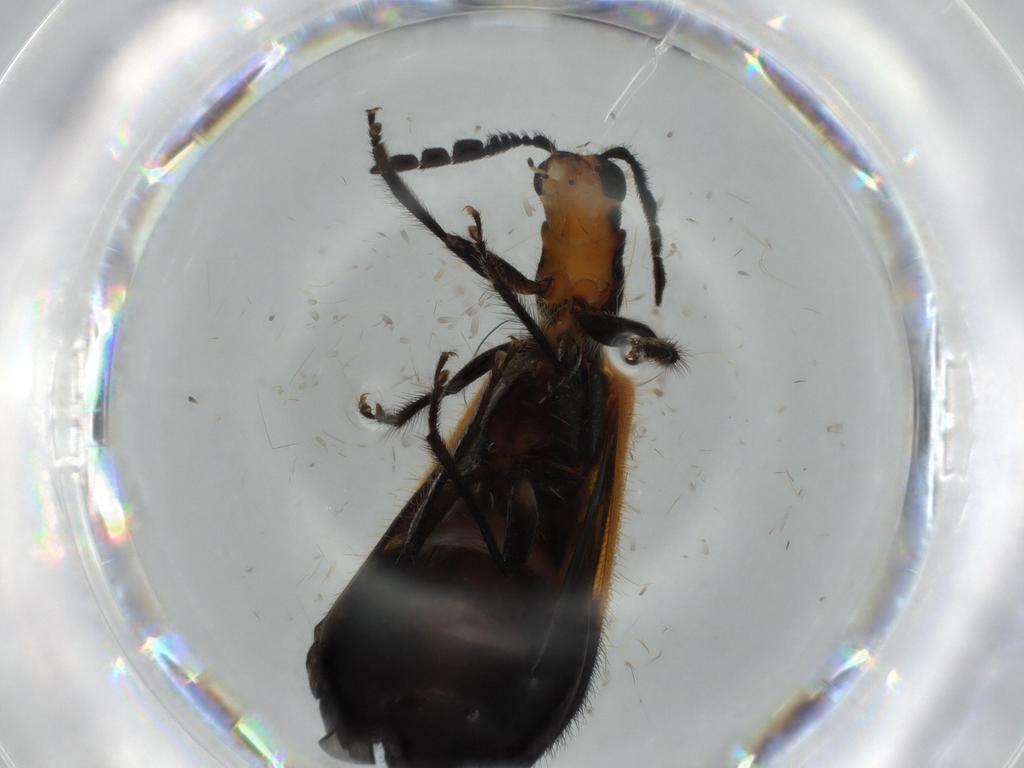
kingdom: Animalia
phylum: Arthropoda
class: Insecta
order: Coleoptera
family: Cleridae
